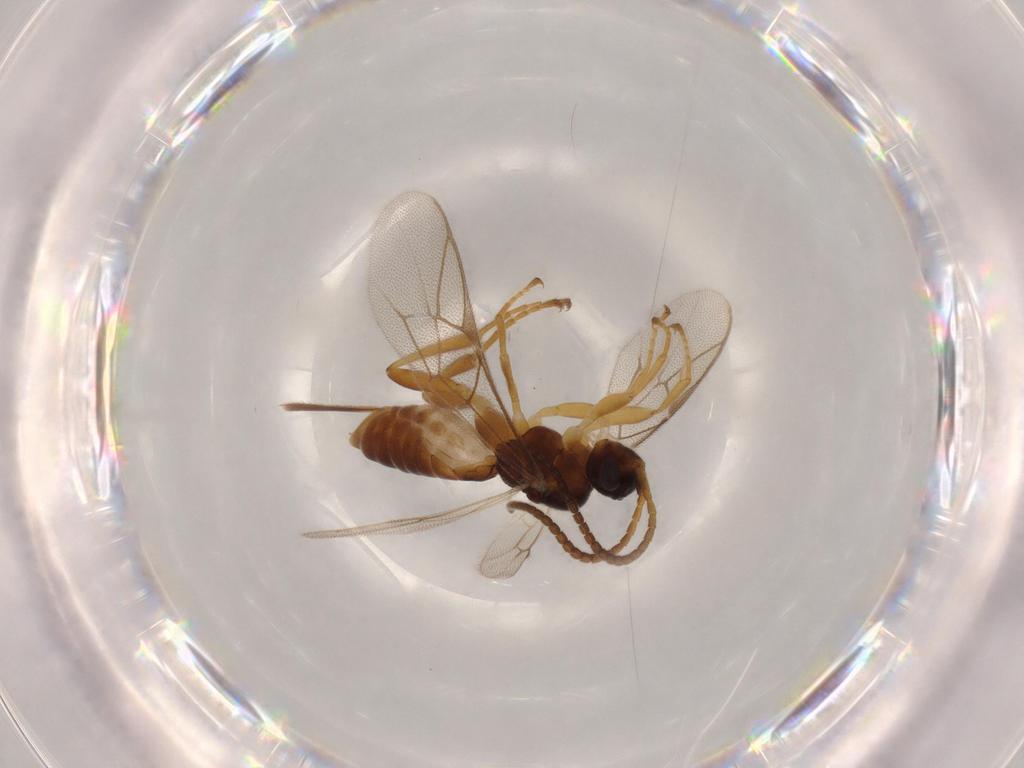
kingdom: Animalia
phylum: Arthropoda
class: Insecta
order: Hymenoptera
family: Ichneumonidae
